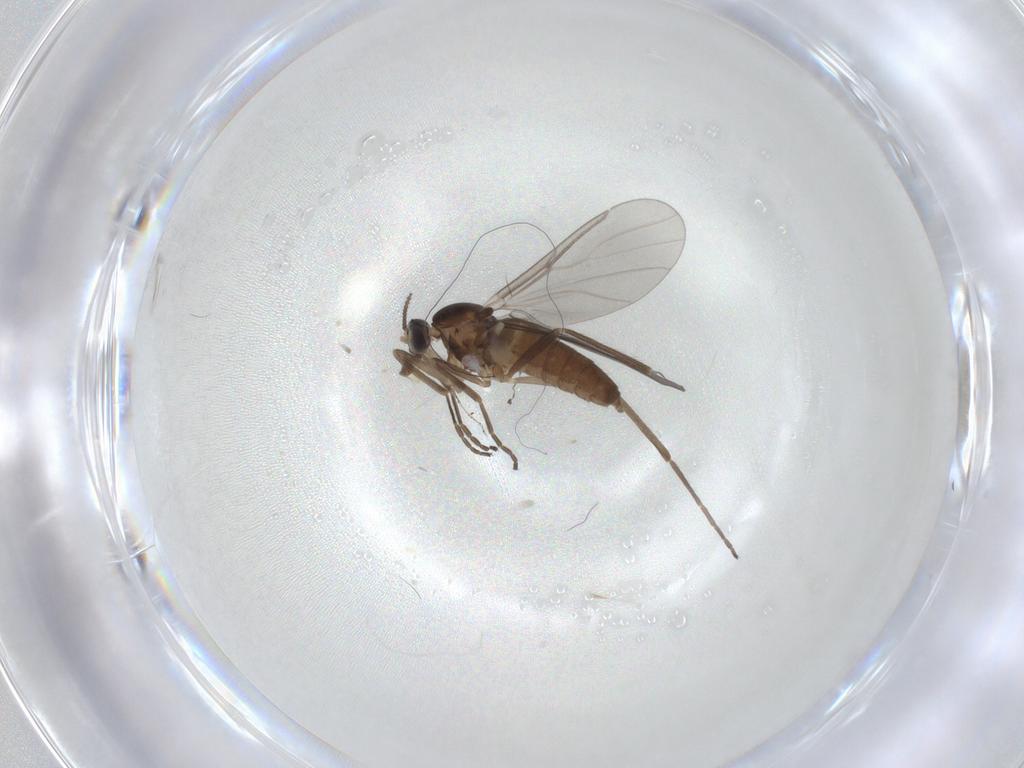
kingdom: Animalia
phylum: Arthropoda
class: Insecta
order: Diptera
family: Cecidomyiidae
